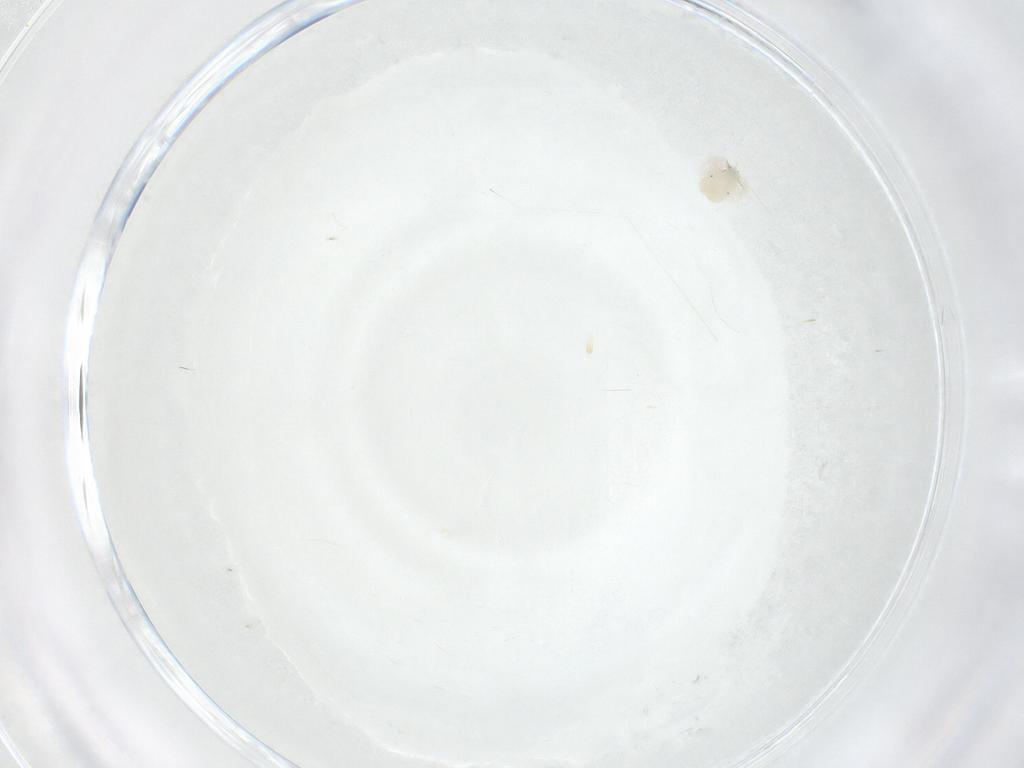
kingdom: Animalia
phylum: Arthropoda
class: Arachnida
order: Trombidiformes
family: Anystidae
